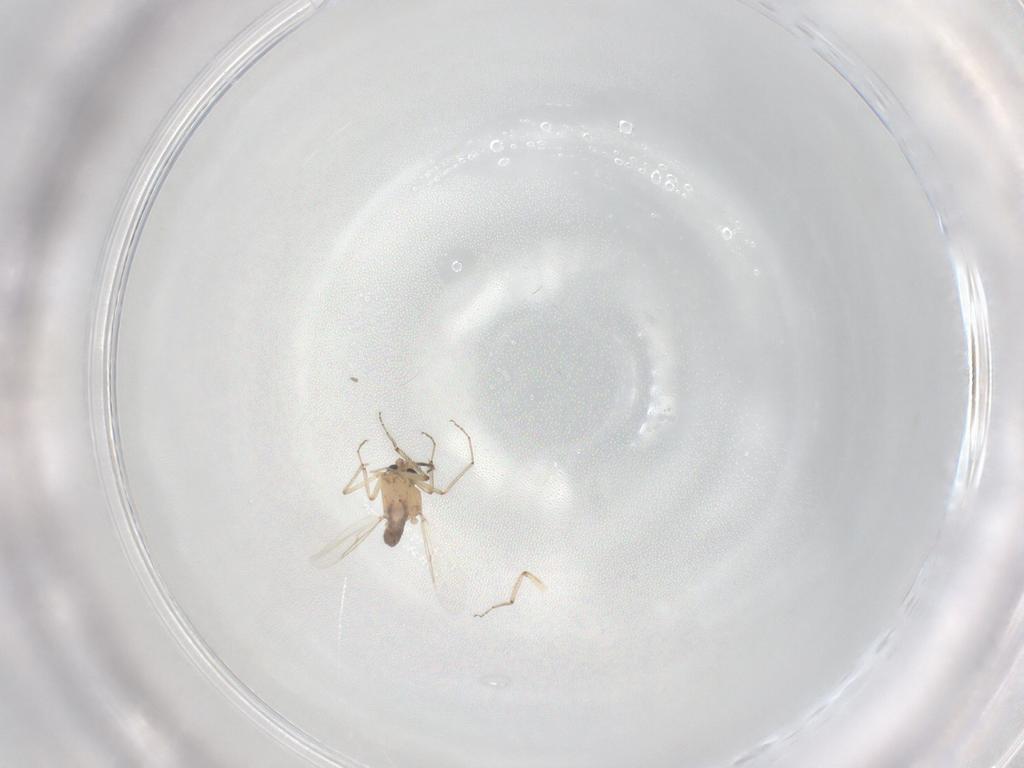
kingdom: Animalia
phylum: Arthropoda
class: Insecta
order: Diptera
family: Ceratopogonidae
